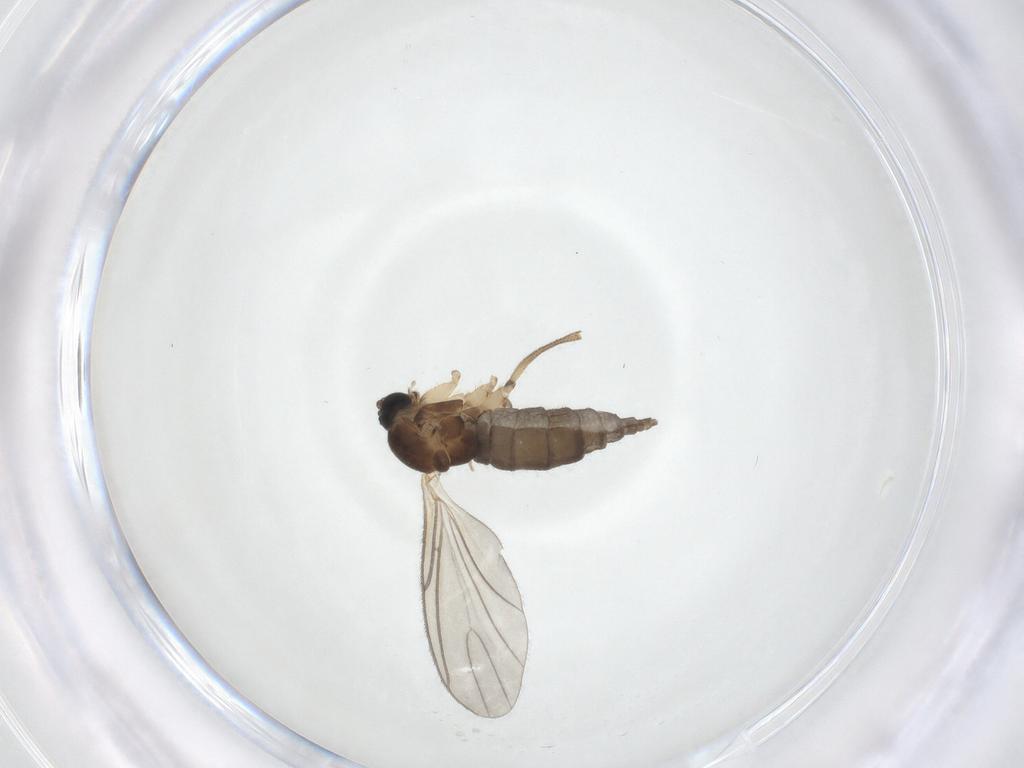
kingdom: Animalia
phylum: Arthropoda
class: Insecta
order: Diptera
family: Sciaridae
